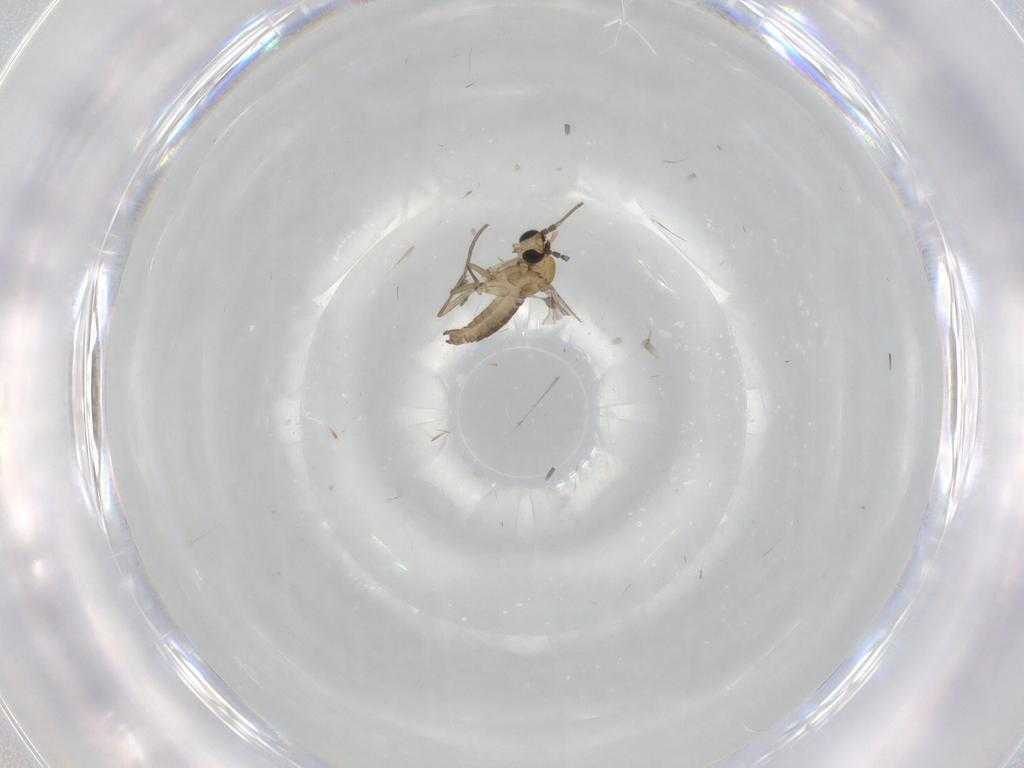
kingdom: Animalia
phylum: Arthropoda
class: Insecta
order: Diptera
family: Sciaridae
